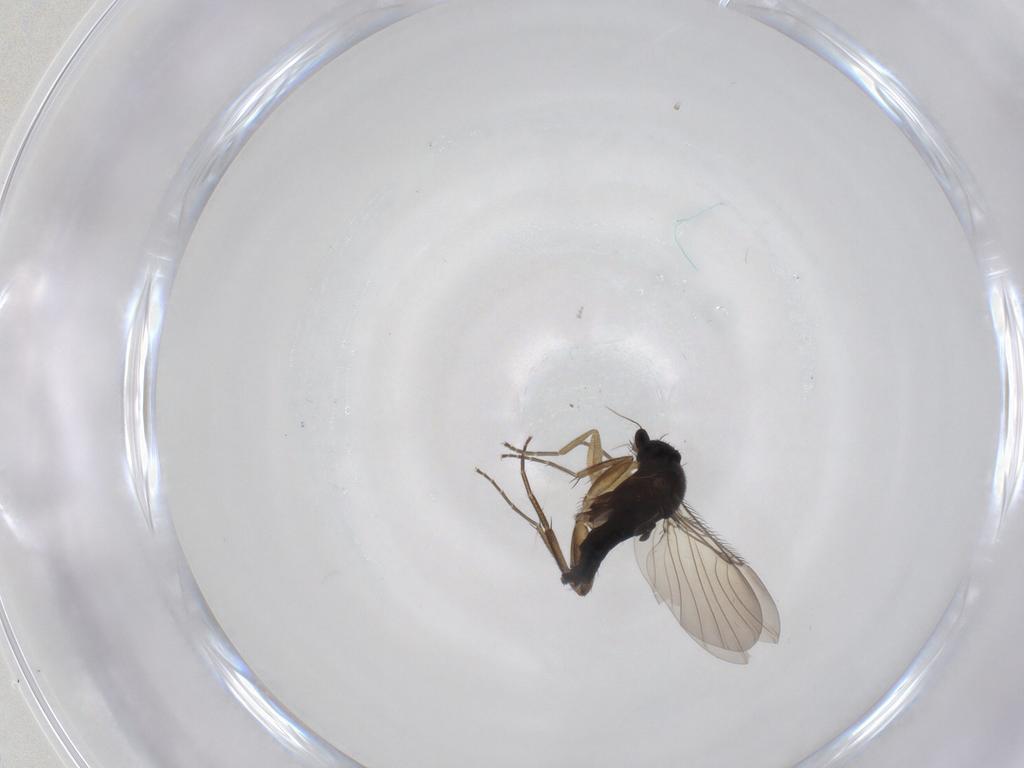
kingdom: Animalia
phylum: Arthropoda
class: Insecta
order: Diptera
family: Phoridae
